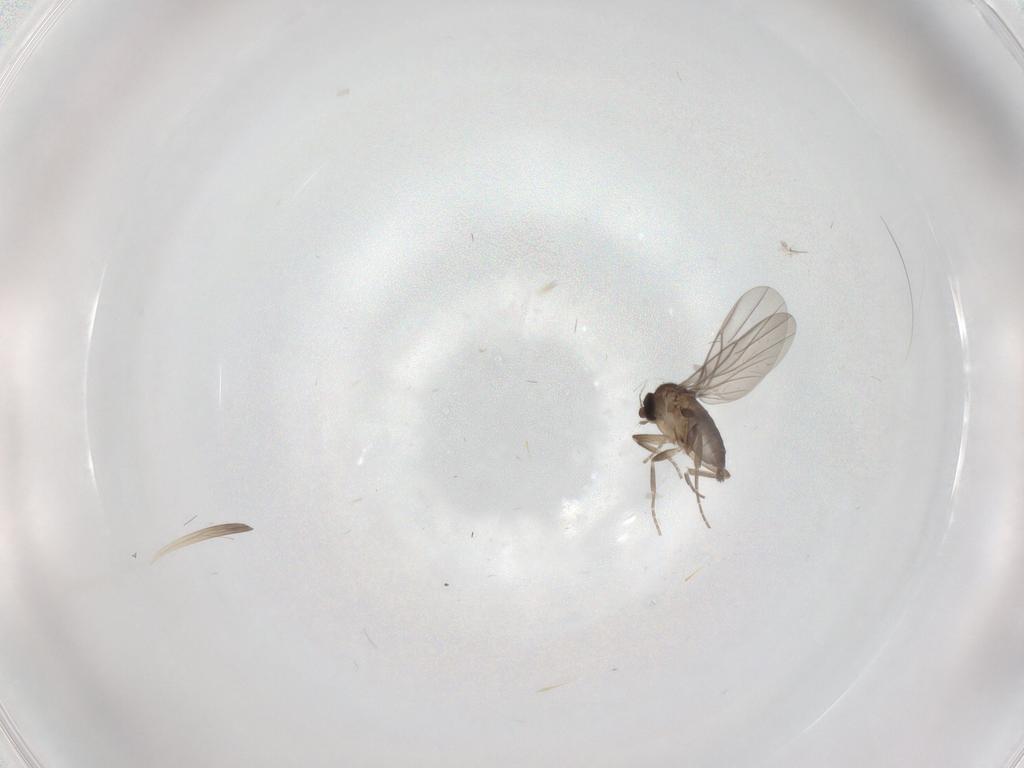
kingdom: Animalia
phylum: Arthropoda
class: Insecta
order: Diptera
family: Phoridae
